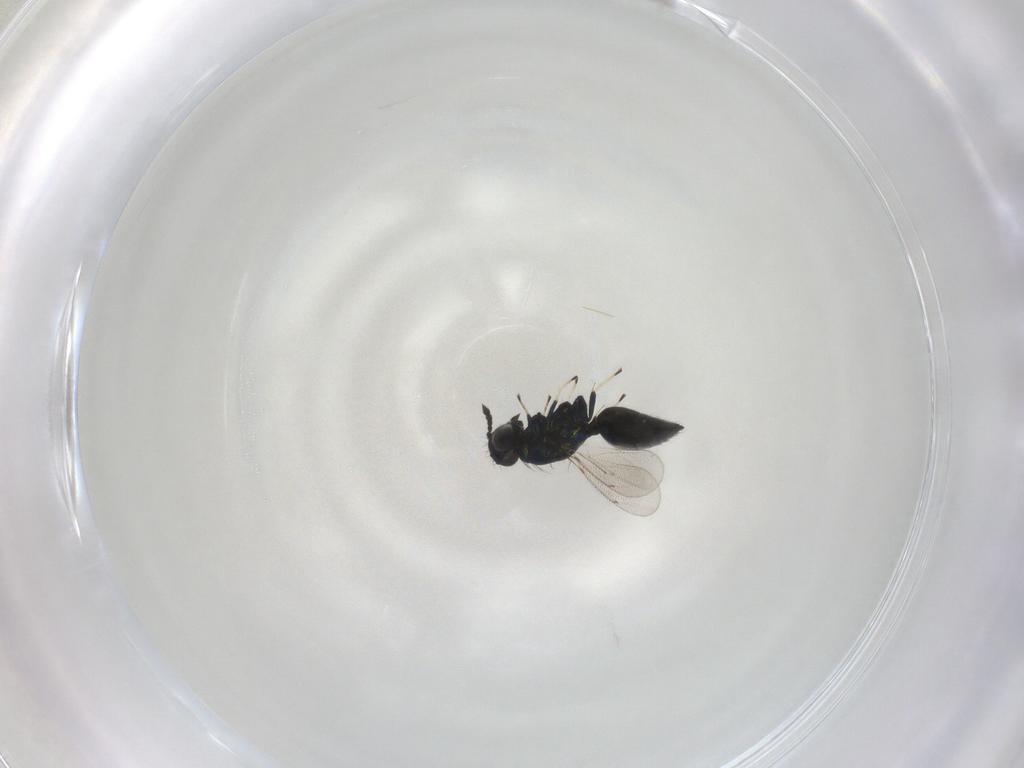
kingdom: Animalia
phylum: Arthropoda
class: Insecta
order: Hymenoptera
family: Eulophidae
